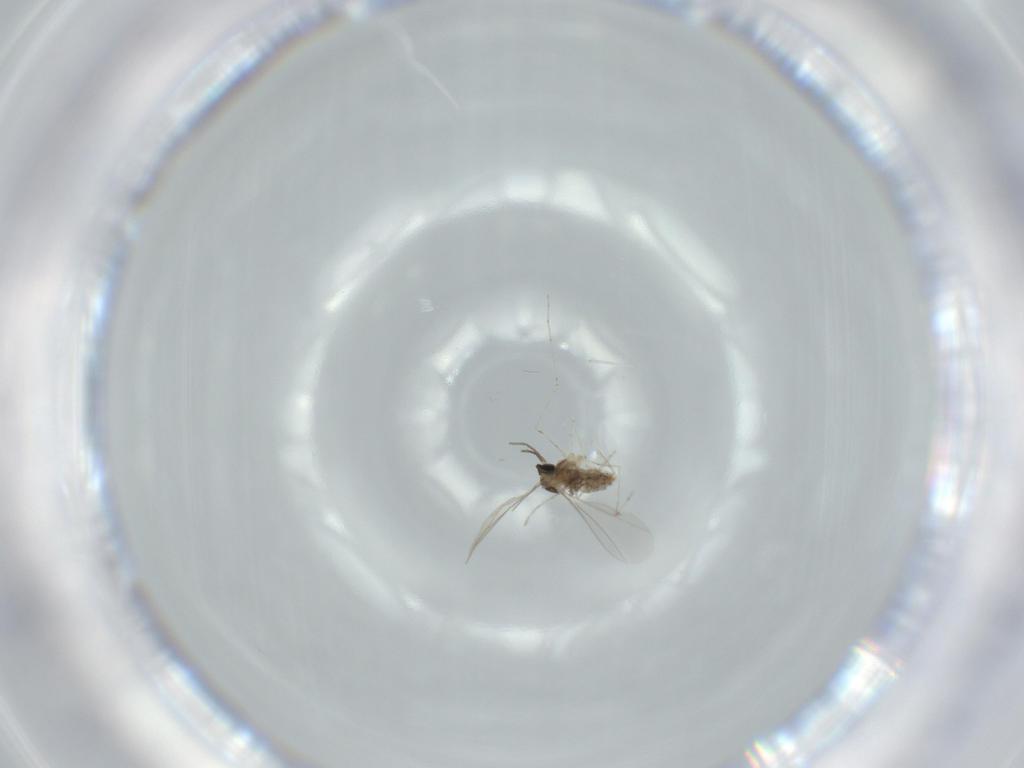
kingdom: Animalia
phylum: Arthropoda
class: Insecta
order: Diptera
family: Cecidomyiidae
